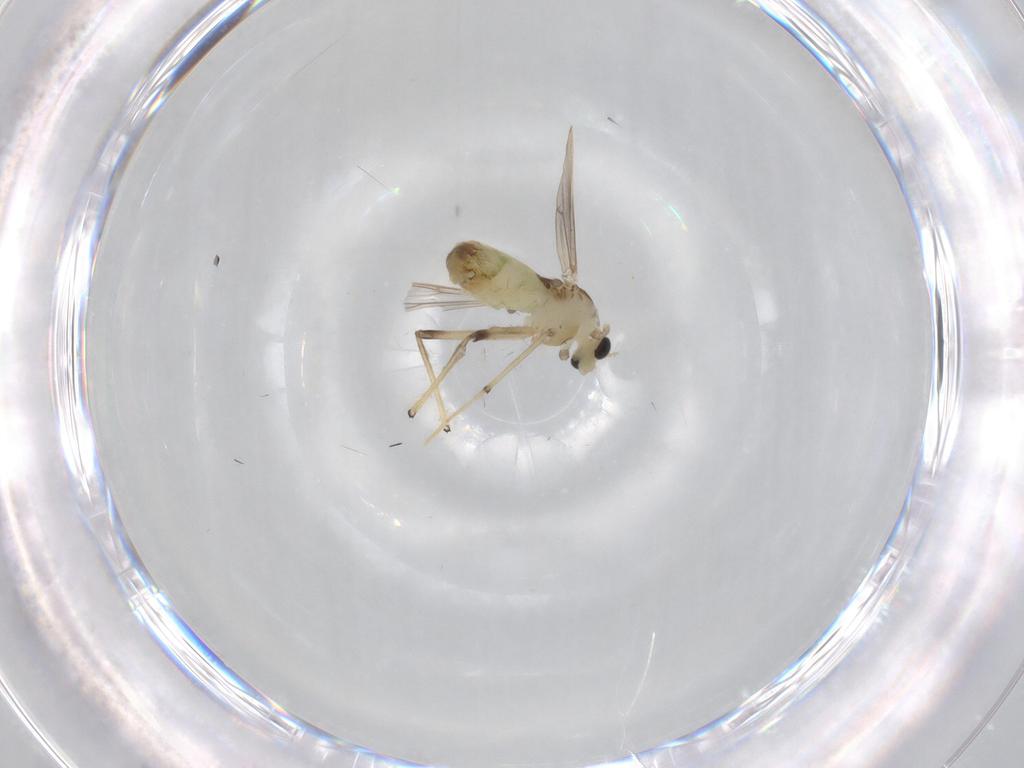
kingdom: Animalia
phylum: Arthropoda
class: Insecta
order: Diptera
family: Chironomidae
